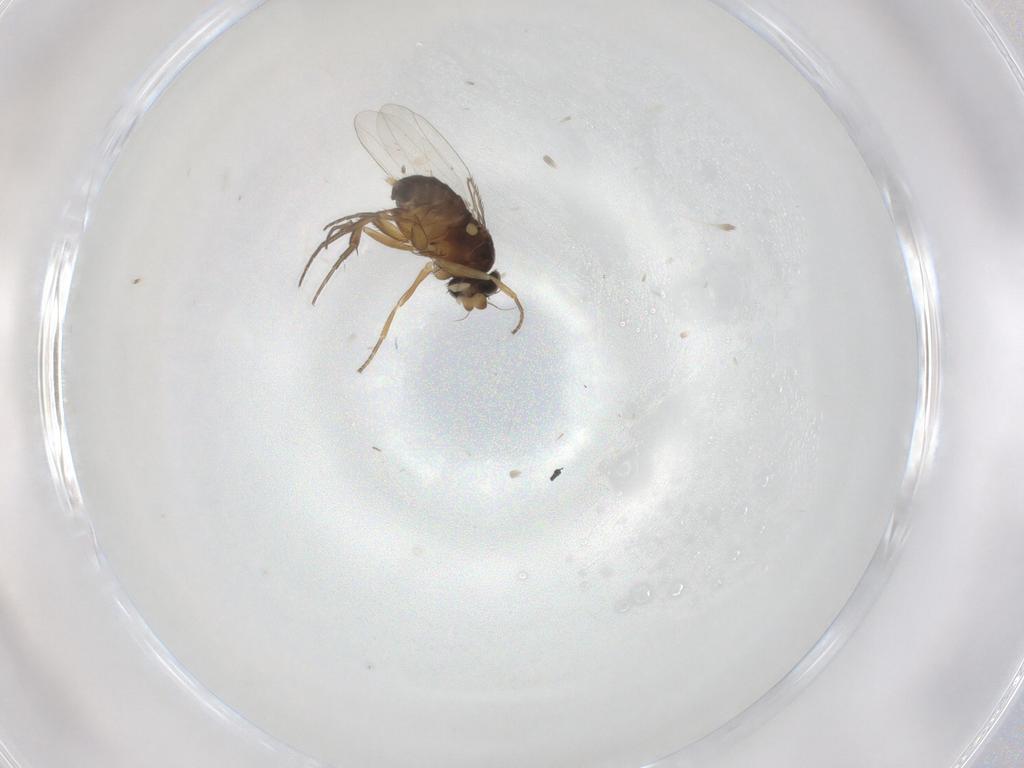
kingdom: Animalia
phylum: Arthropoda
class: Insecta
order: Diptera
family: Phoridae
